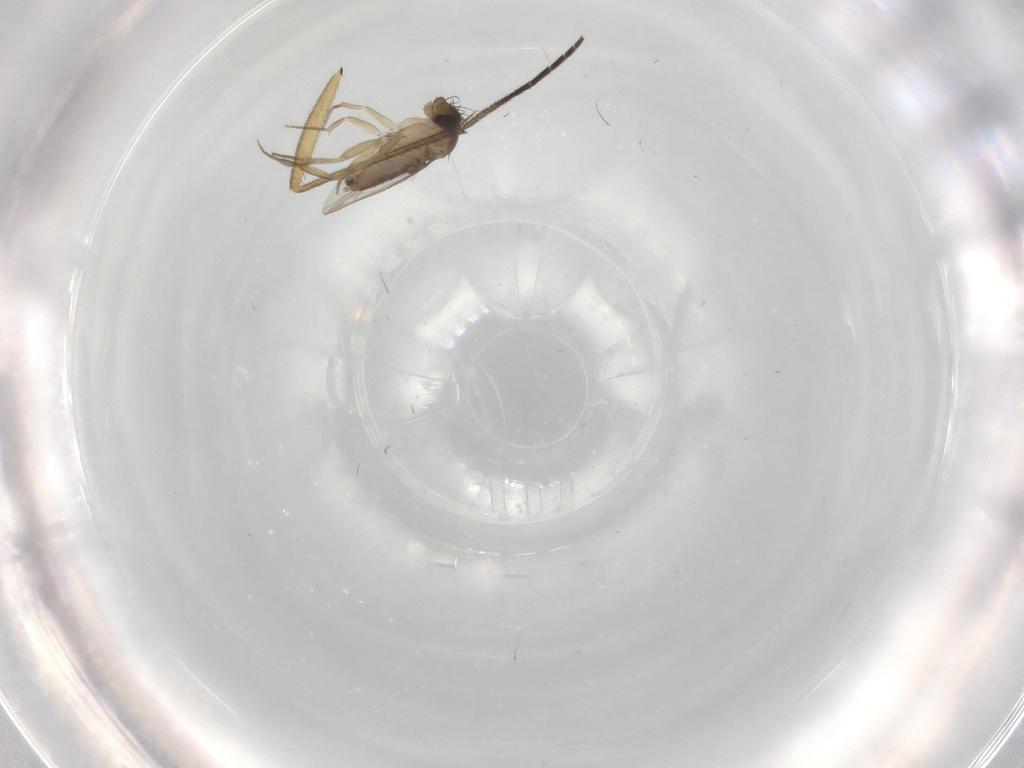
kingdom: Animalia
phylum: Arthropoda
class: Insecta
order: Diptera
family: Phoridae
